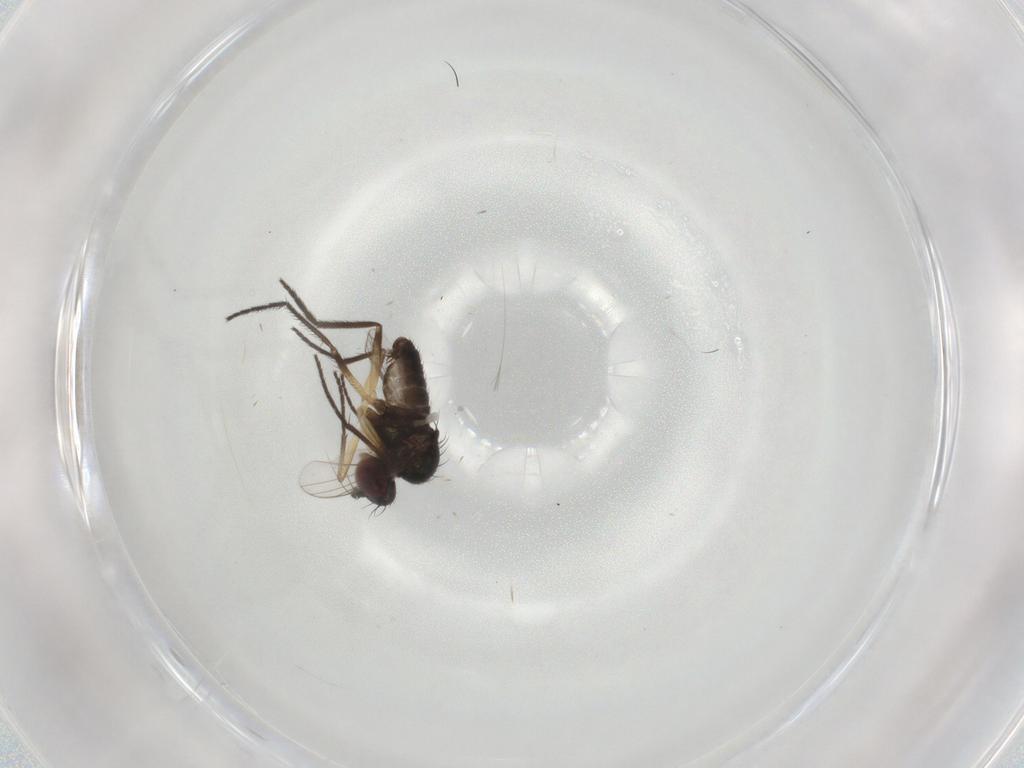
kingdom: Animalia
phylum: Arthropoda
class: Insecta
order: Diptera
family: Dolichopodidae
